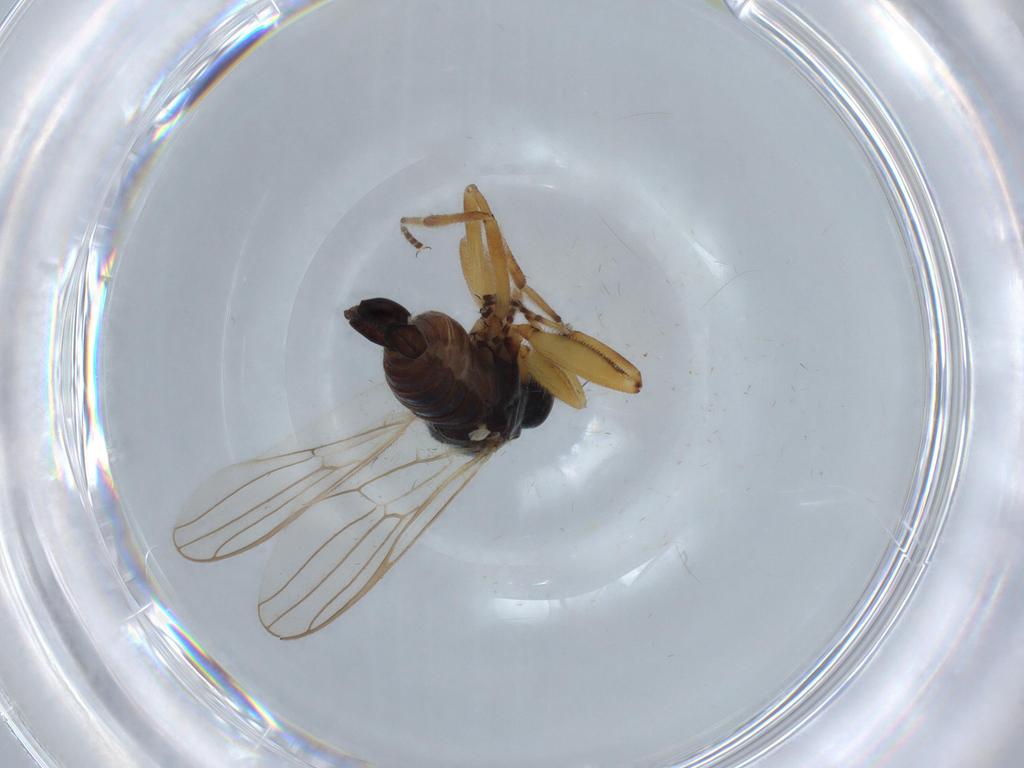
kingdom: Animalia
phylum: Arthropoda
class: Insecta
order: Diptera
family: Hybotidae
